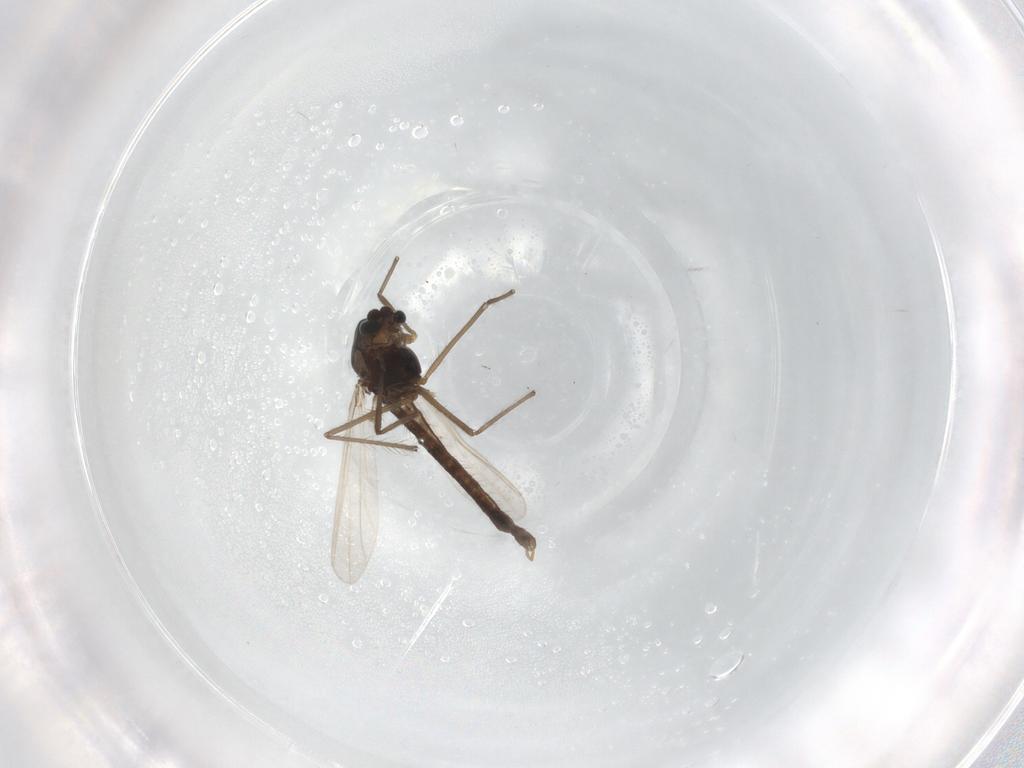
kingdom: Animalia
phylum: Arthropoda
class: Insecta
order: Diptera
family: Chironomidae
